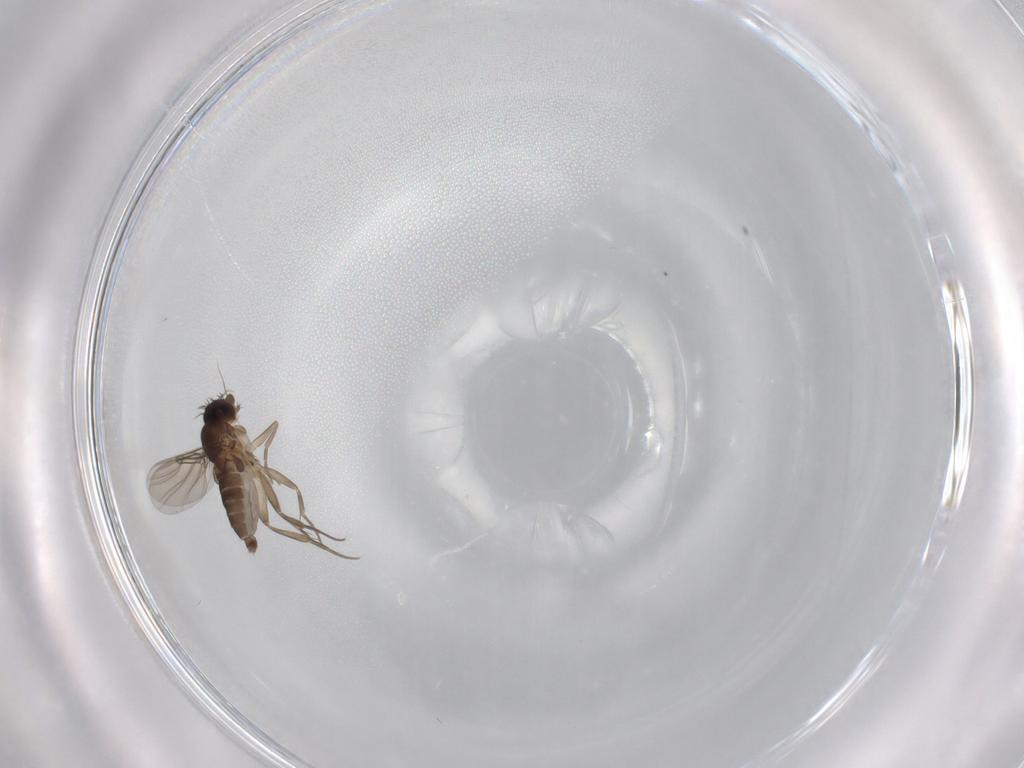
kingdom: Animalia
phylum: Arthropoda
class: Insecta
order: Diptera
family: Phoridae
